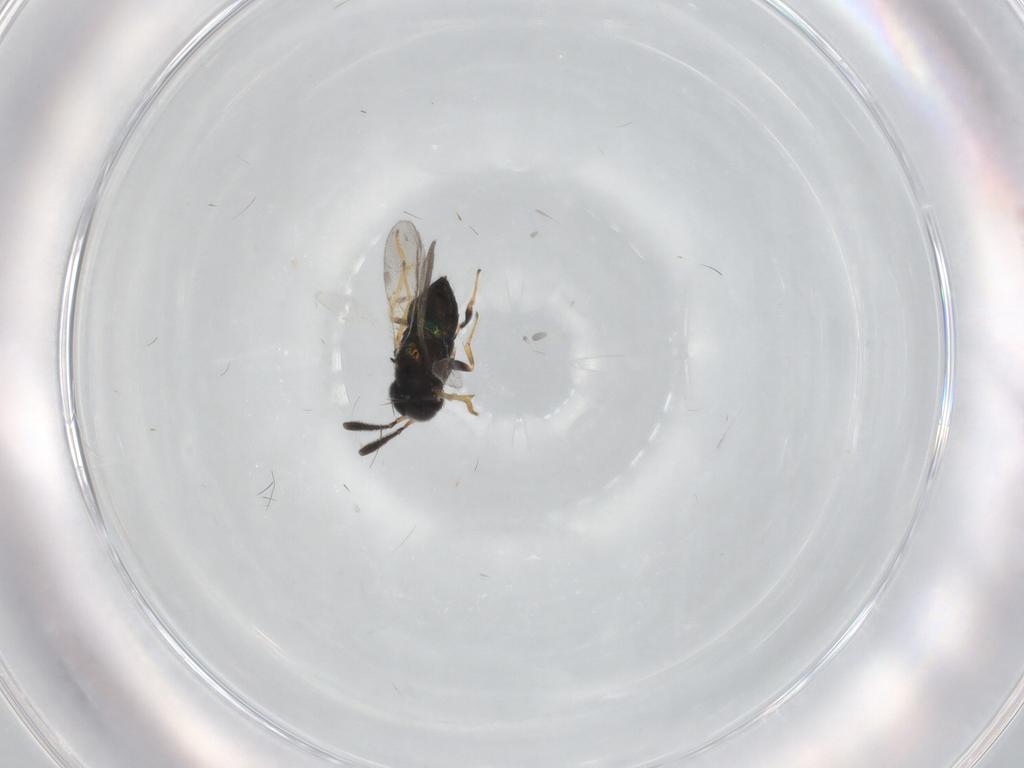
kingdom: Animalia
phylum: Arthropoda
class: Insecta
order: Hymenoptera
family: Encyrtidae
